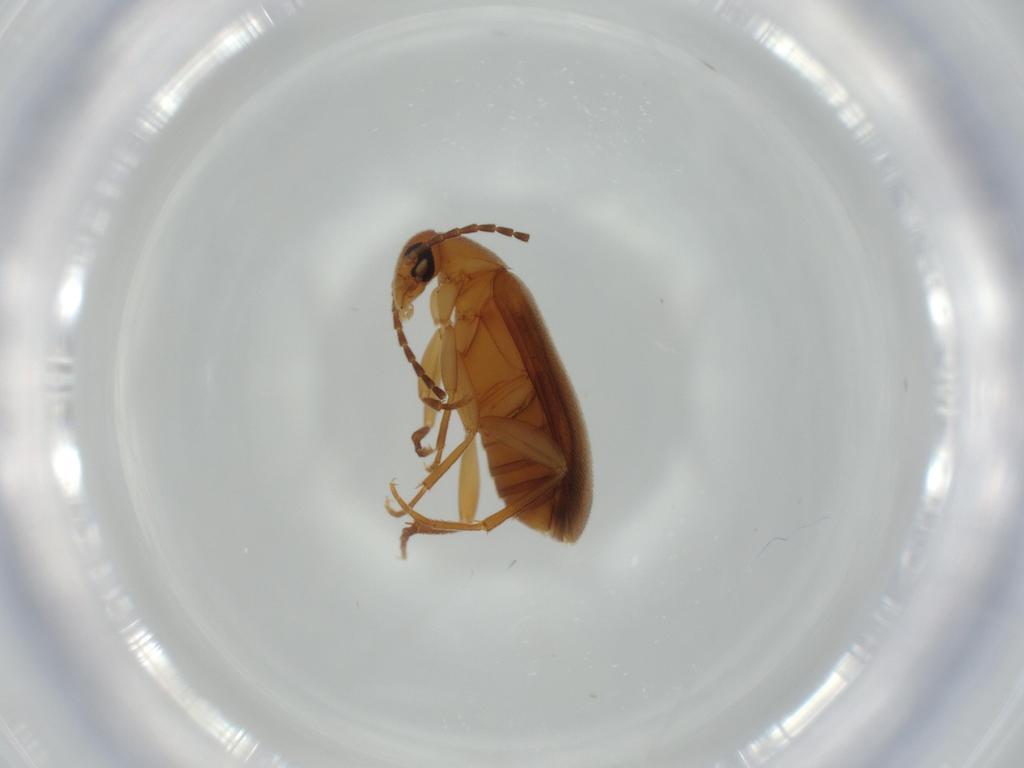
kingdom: Animalia
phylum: Arthropoda
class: Insecta
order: Coleoptera
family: Scraptiidae
